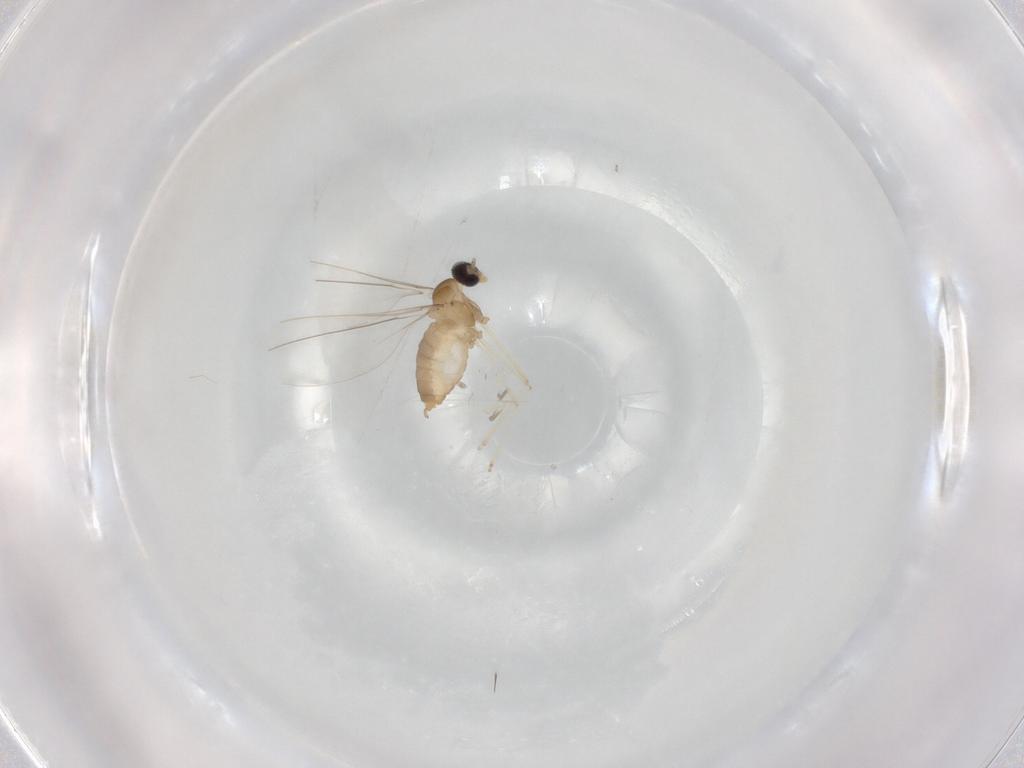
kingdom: Animalia
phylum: Arthropoda
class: Insecta
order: Diptera
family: Cecidomyiidae
